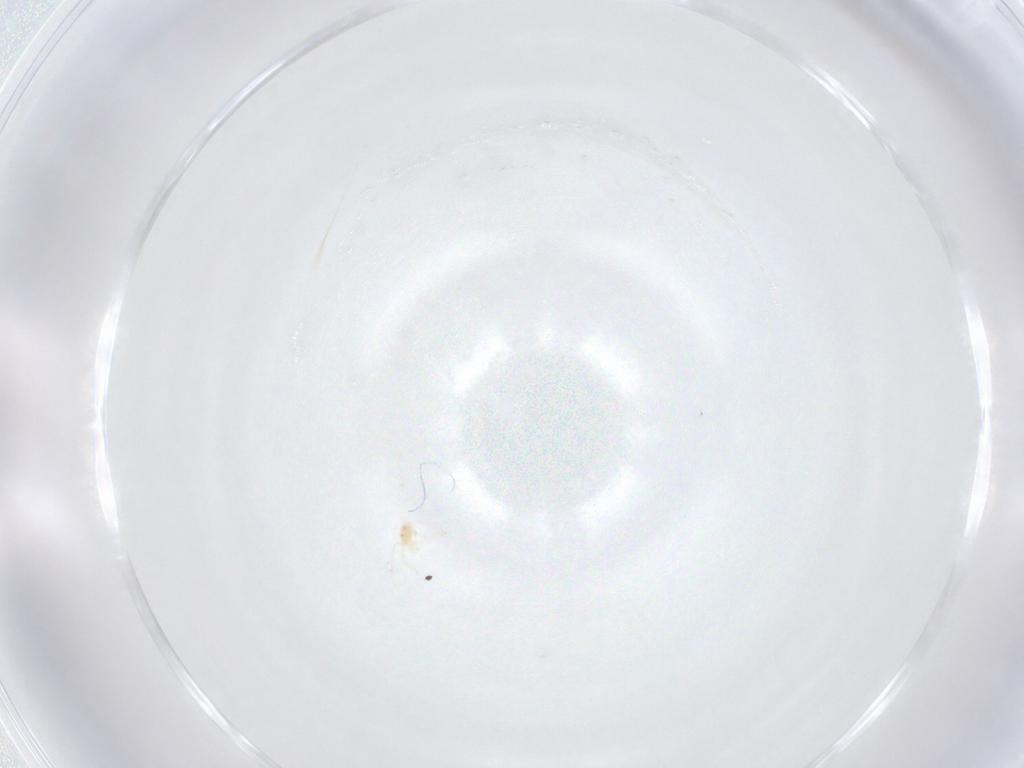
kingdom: Animalia
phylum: Arthropoda
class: Arachnida
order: Trombidiformes
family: Anystidae
